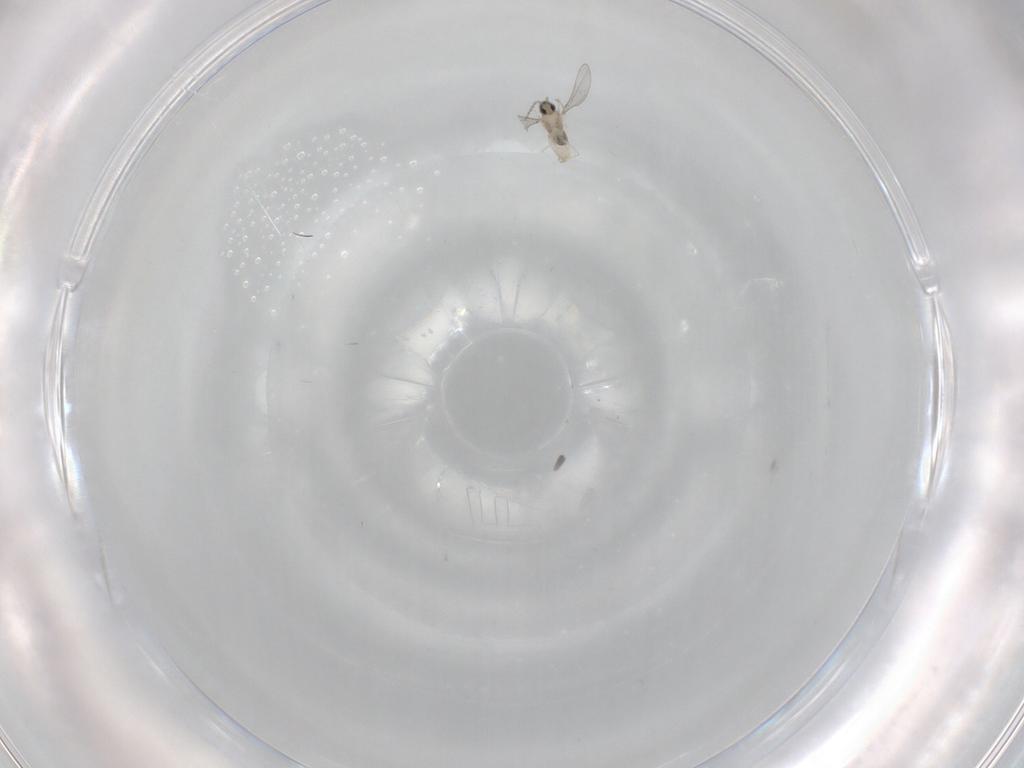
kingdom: Animalia
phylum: Arthropoda
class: Insecta
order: Diptera
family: Cecidomyiidae
